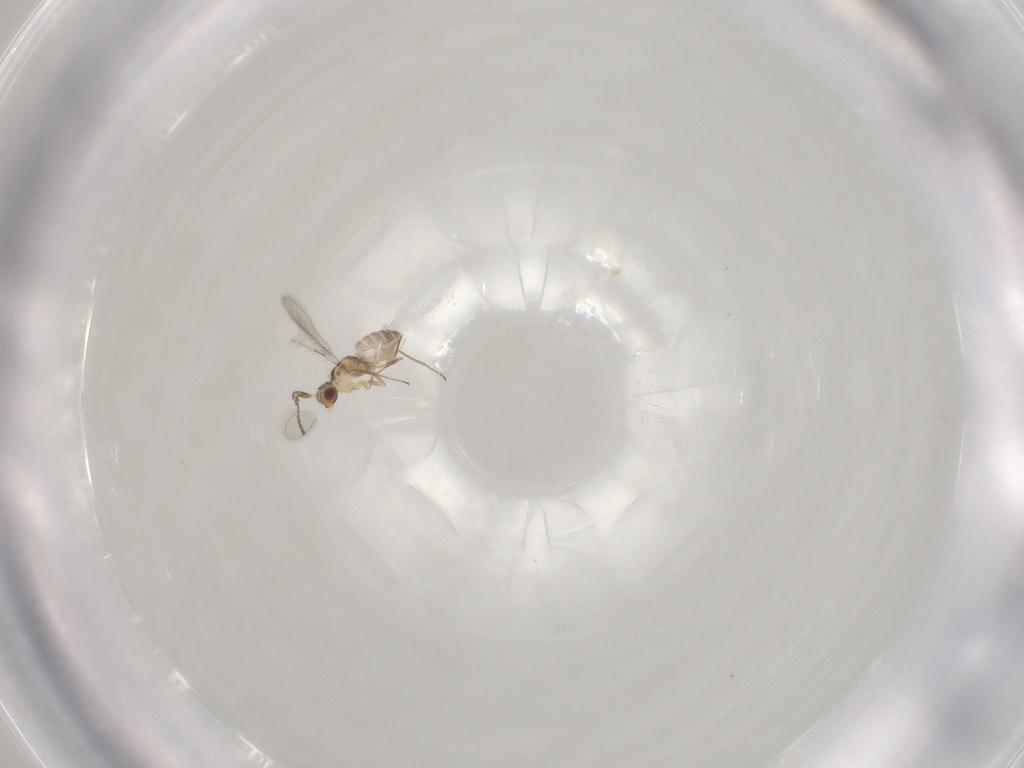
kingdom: Animalia
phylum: Arthropoda
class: Insecta
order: Hymenoptera
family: Mymaridae
